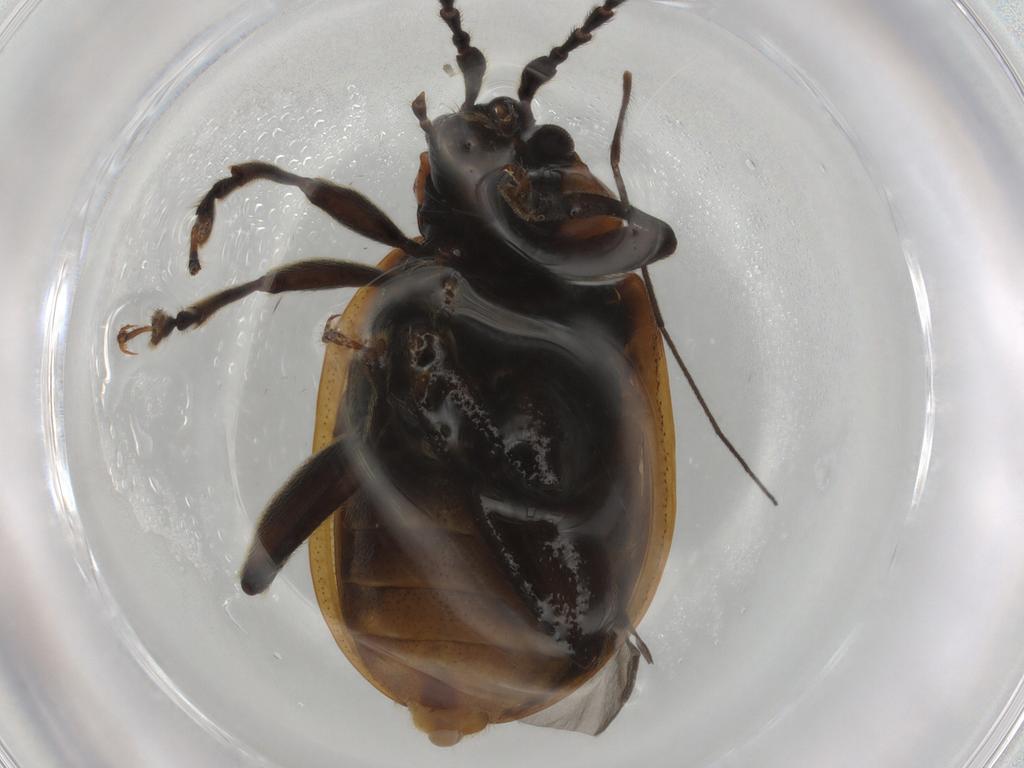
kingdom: Animalia
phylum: Arthropoda
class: Insecta
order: Coleoptera
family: Chrysomelidae
